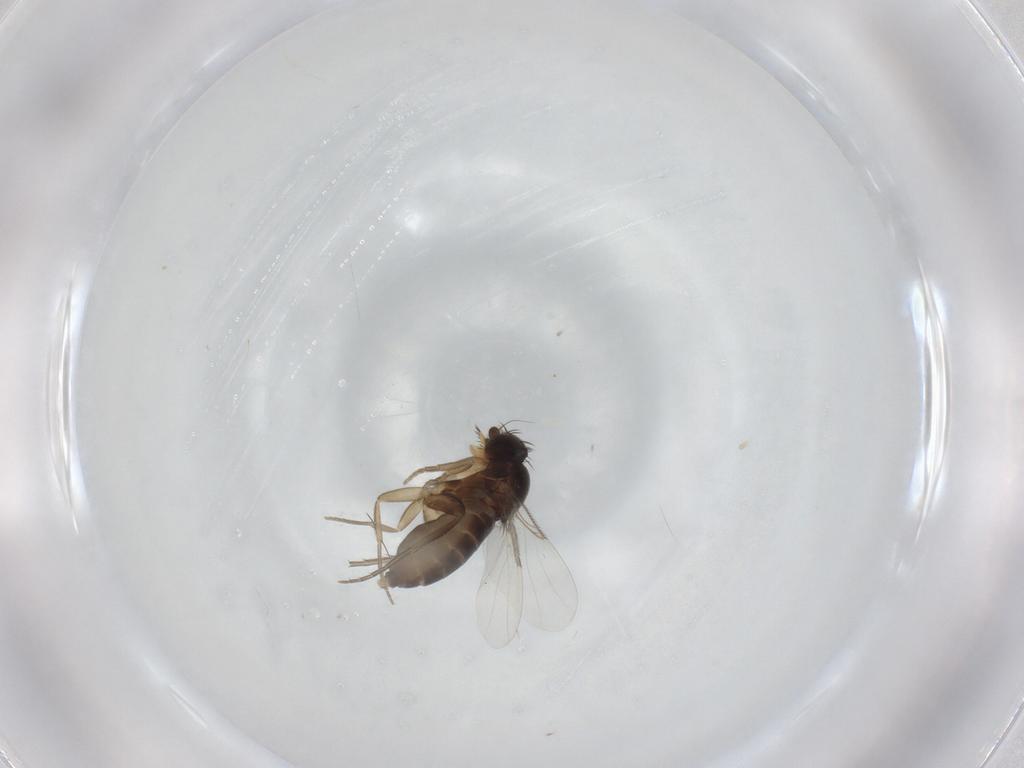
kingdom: Animalia
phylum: Arthropoda
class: Insecta
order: Diptera
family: Phoridae
